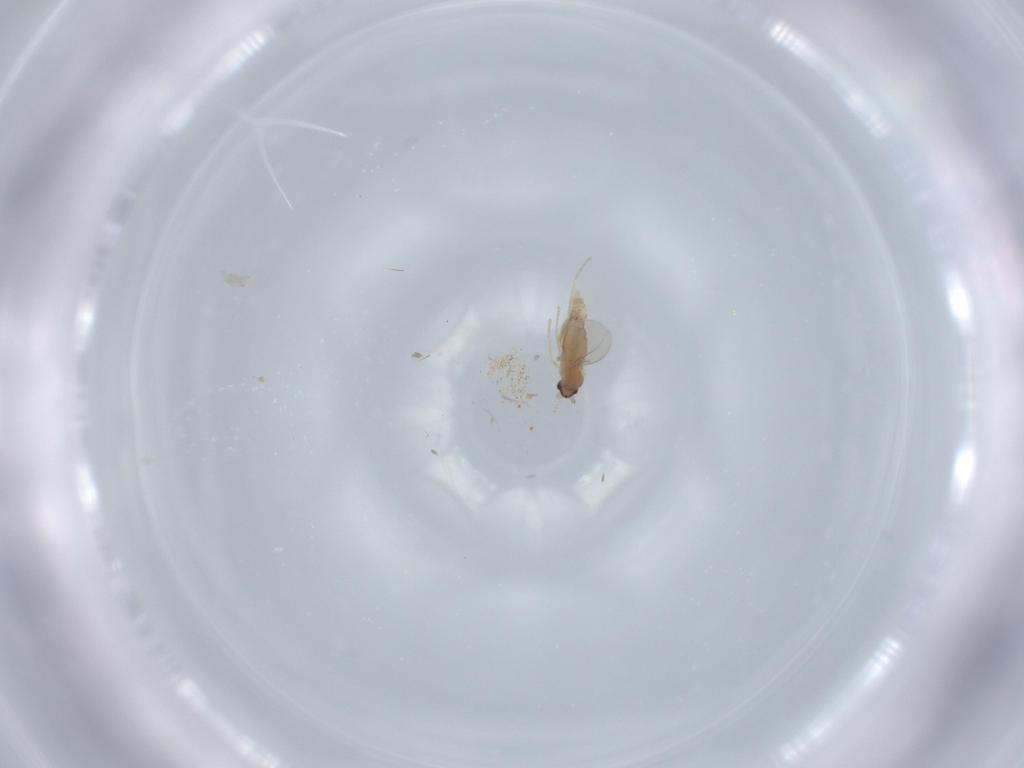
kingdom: Animalia
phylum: Arthropoda
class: Insecta
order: Diptera
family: Cecidomyiidae
